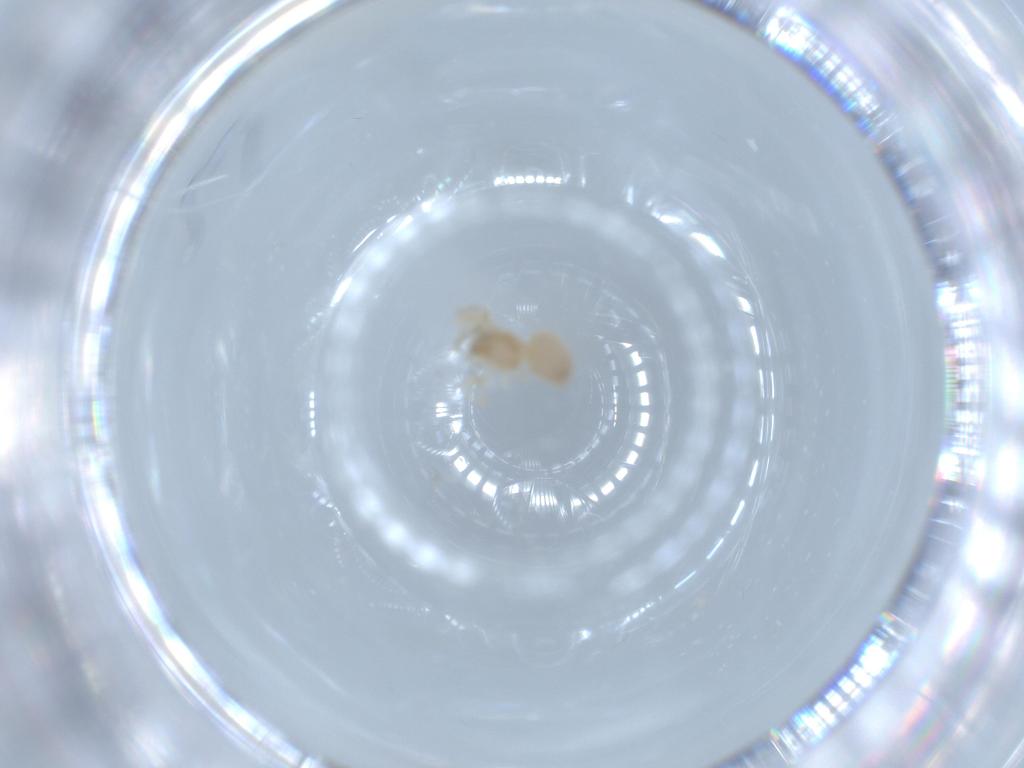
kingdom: Animalia
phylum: Arthropoda
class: Arachnida
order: Araneae
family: Oonopidae
